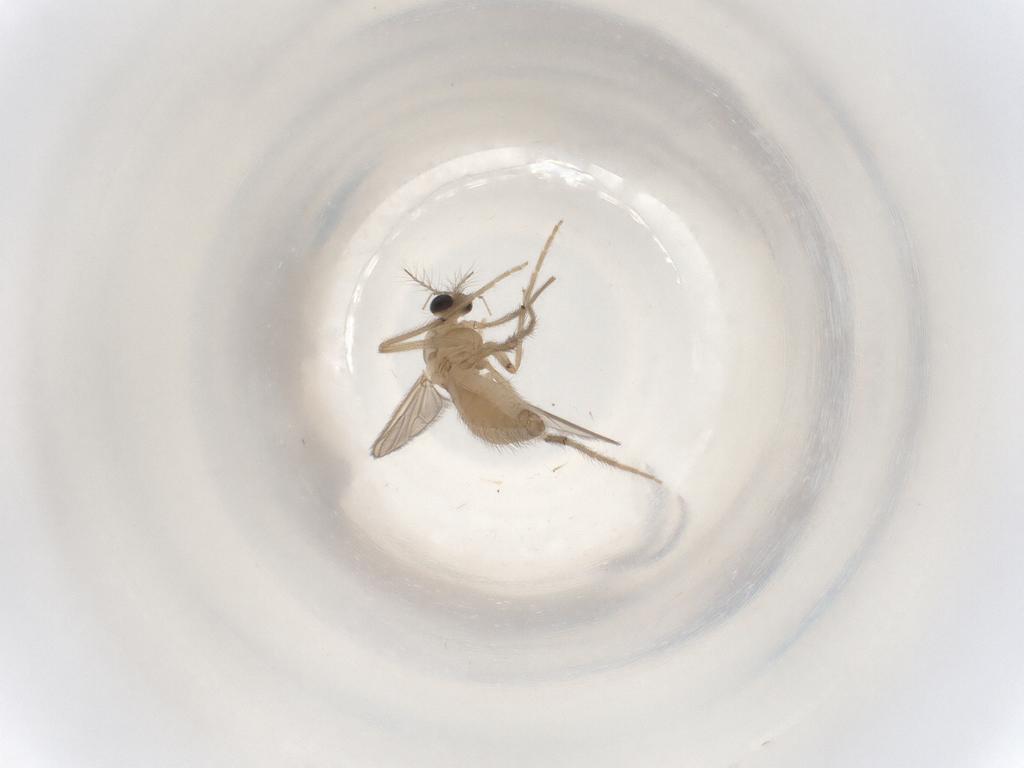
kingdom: Animalia
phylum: Arthropoda
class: Insecta
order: Diptera
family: Chironomidae
